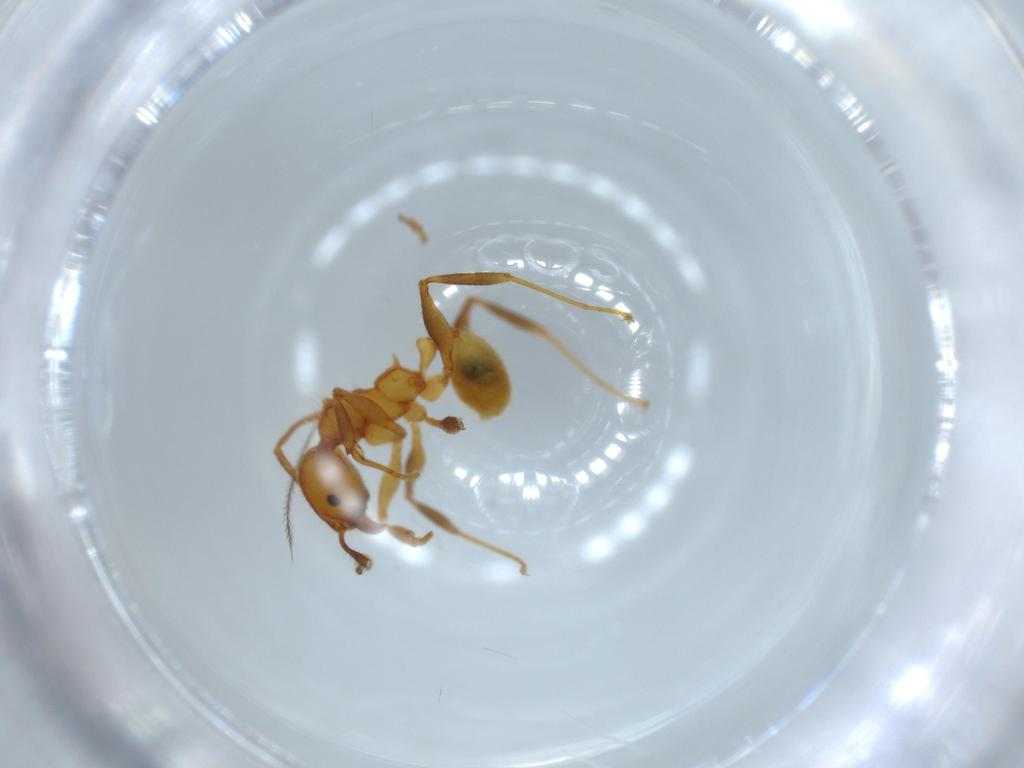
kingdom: Animalia
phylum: Arthropoda
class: Insecta
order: Hymenoptera
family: Formicidae
